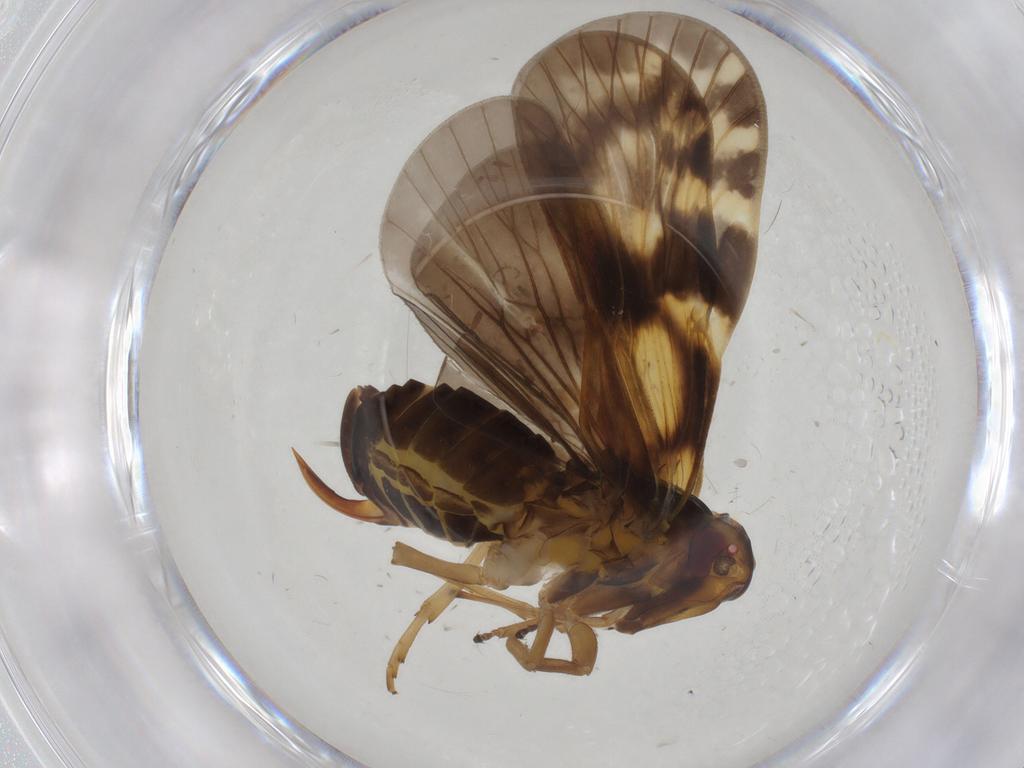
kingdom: Animalia
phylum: Arthropoda
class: Insecta
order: Hemiptera
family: Cixiidae
